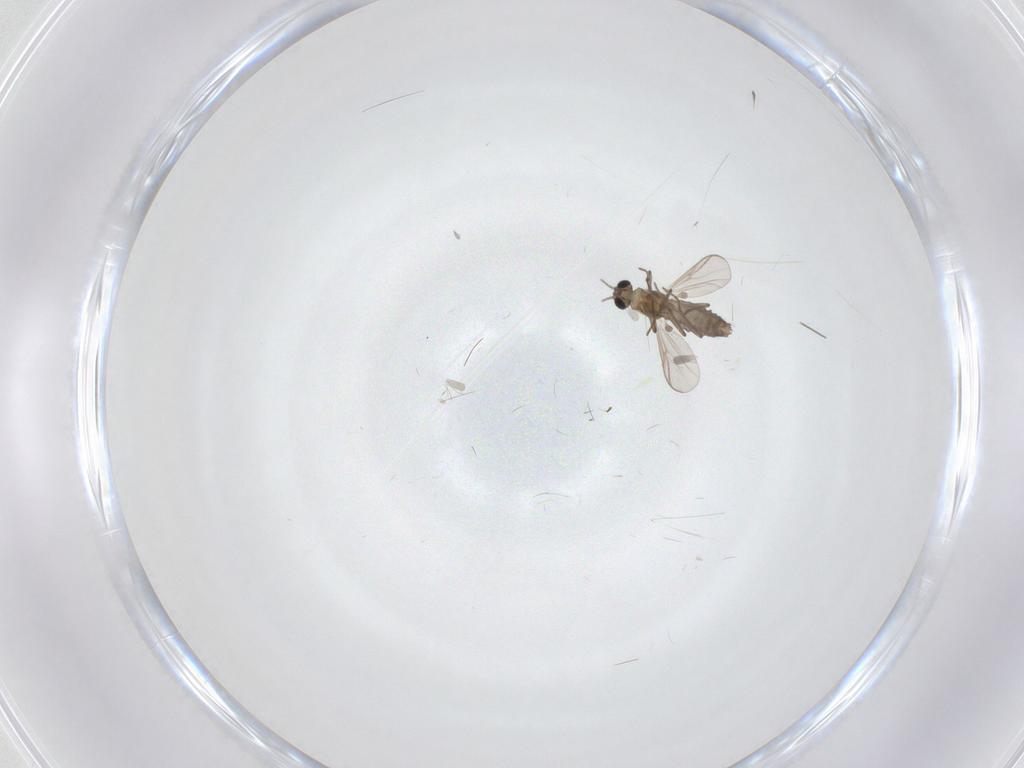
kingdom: Animalia
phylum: Arthropoda
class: Insecta
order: Diptera
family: Chironomidae
